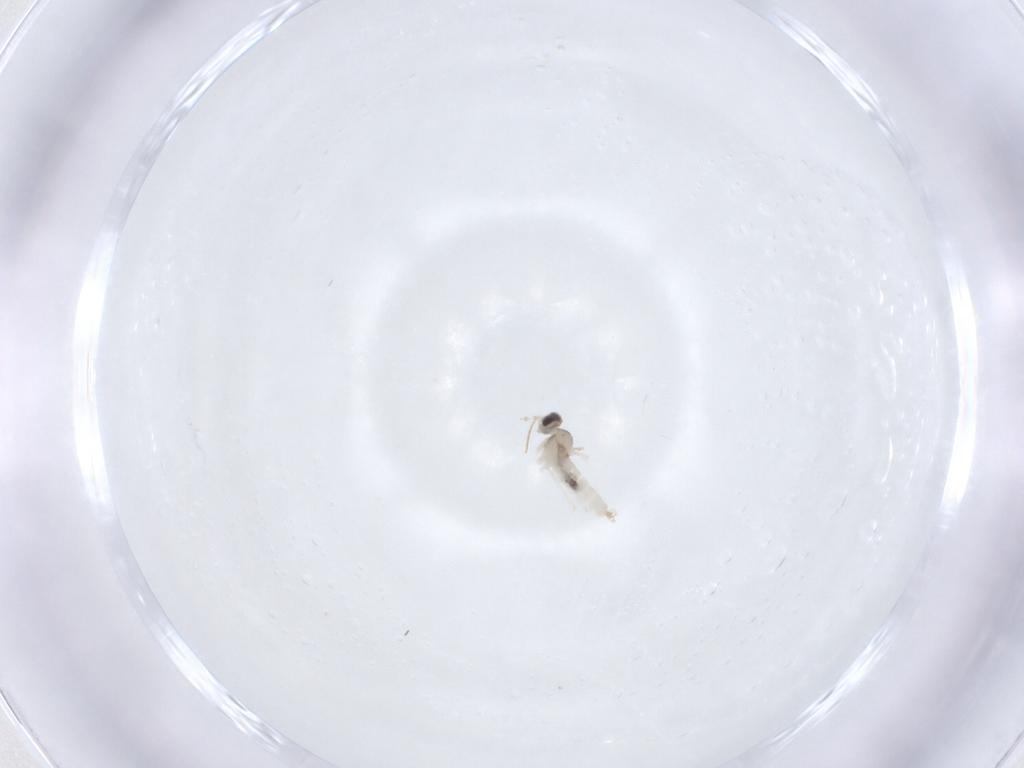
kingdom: Animalia
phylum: Arthropoda
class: Insecta
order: Diptera
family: Cecidomyiidae
